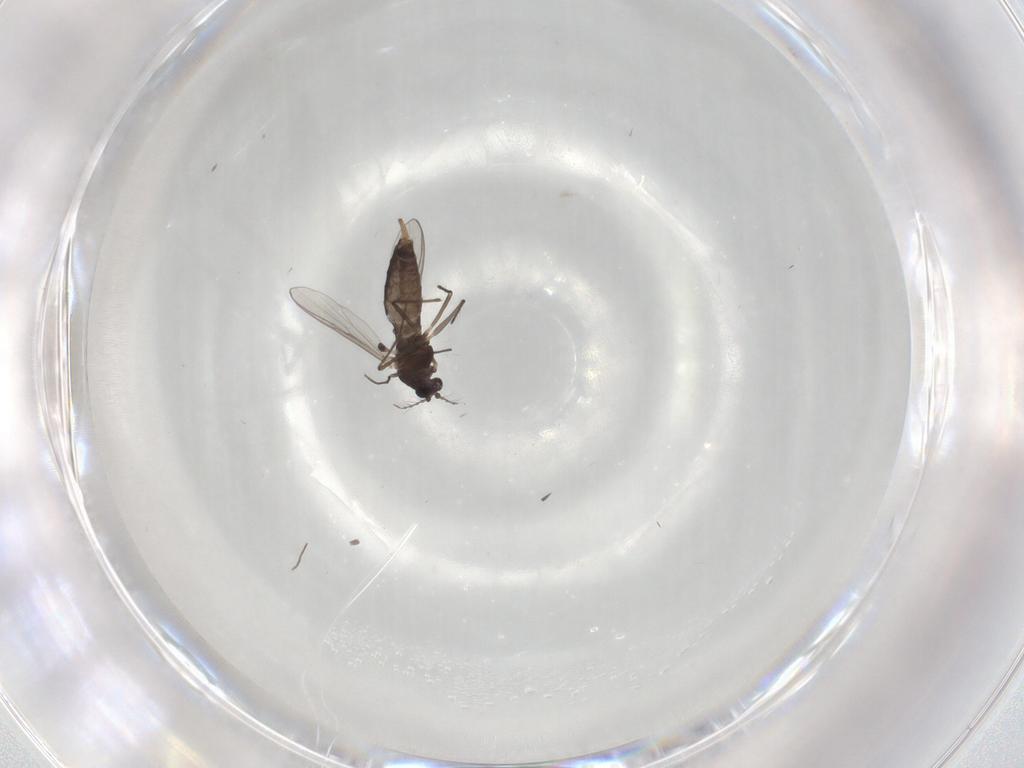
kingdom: Animalia
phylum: Arthropoda
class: Insecta
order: Diptera
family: Chironomidae
